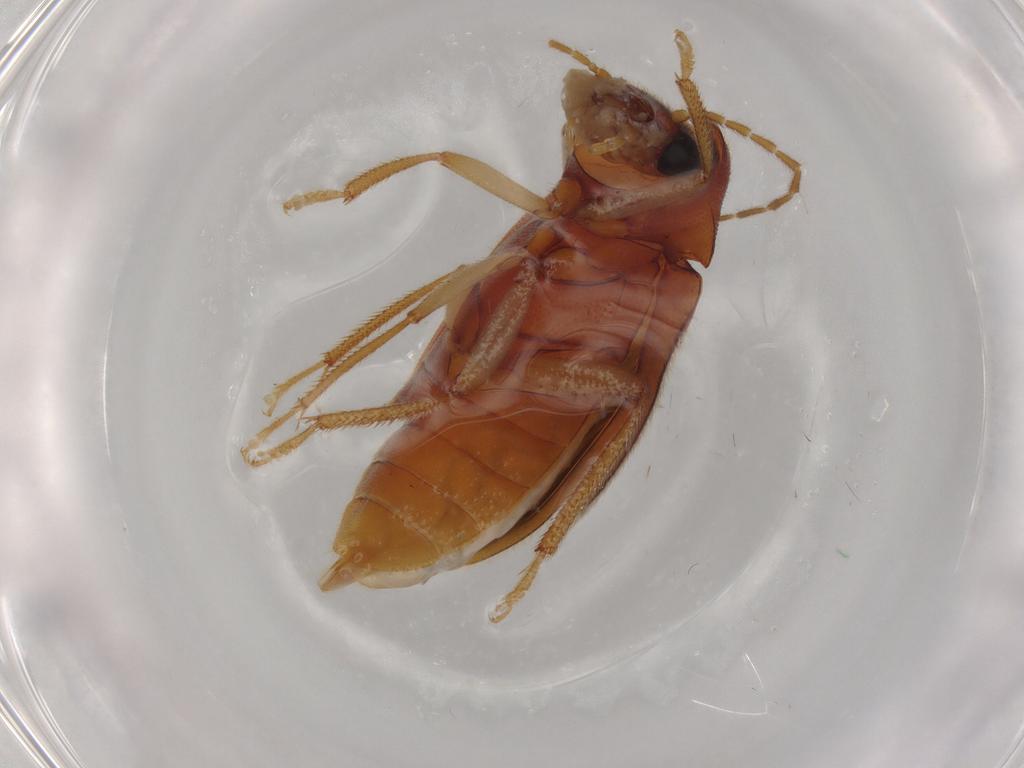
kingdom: Animalia
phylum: Arthropoda
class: Insecta
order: Coleoptera
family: Ptilodactylidae
